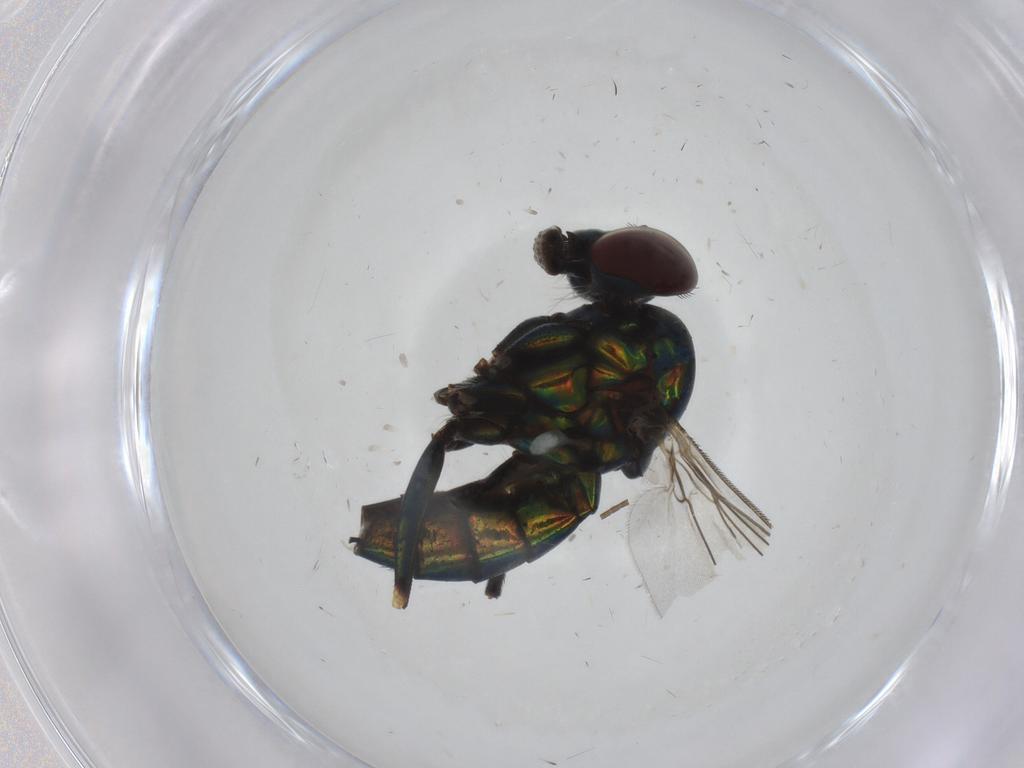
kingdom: Animalia
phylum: Arthropoda
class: Insecta
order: Diptera
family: Dolichopodidae
